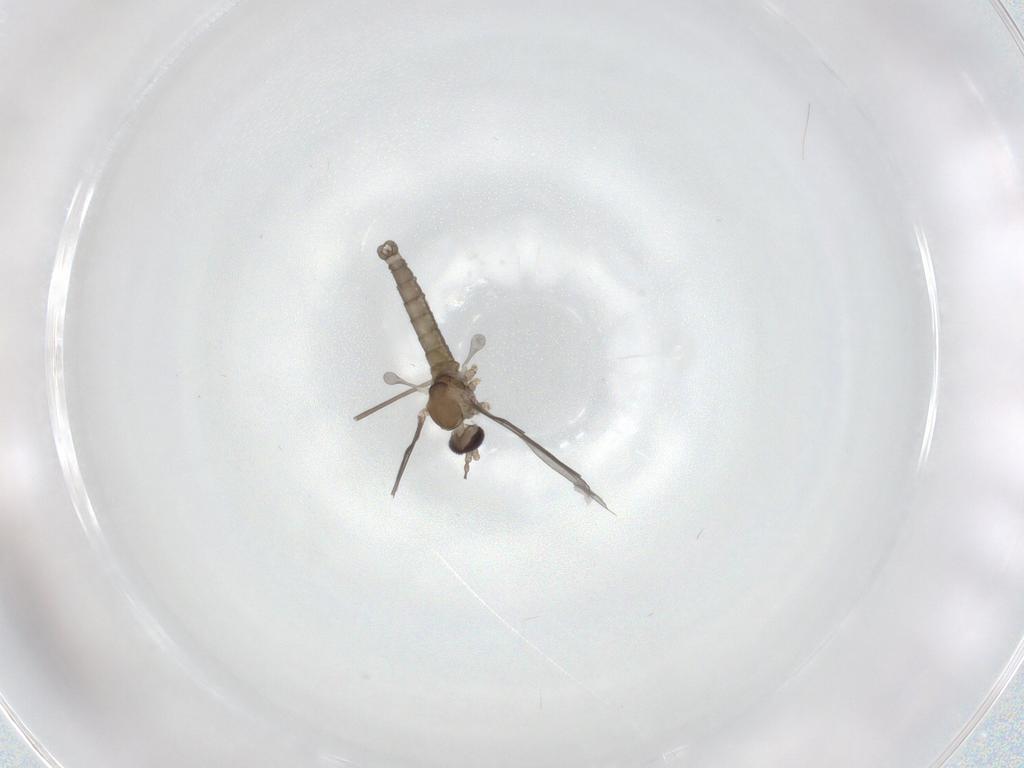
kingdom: Animalia
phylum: Arthropoda
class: Insecta
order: Diptera
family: Cecidomyiidae
